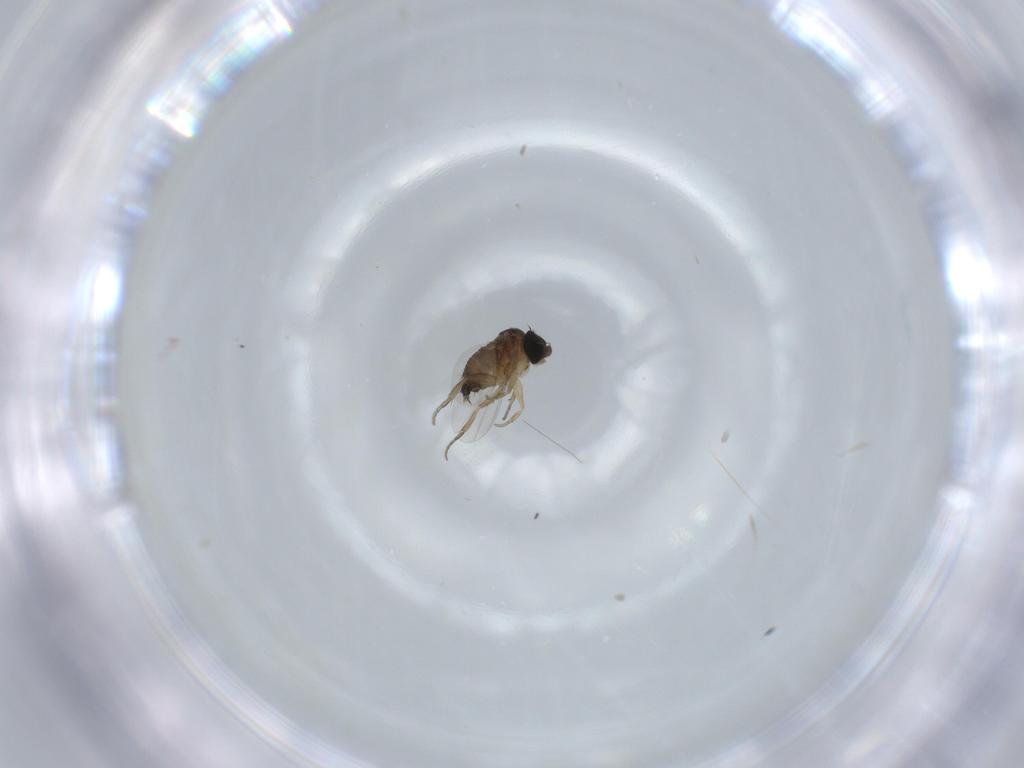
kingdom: Animalia
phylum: Arthropoda
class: Insecta
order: Diptera
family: Phoridae
